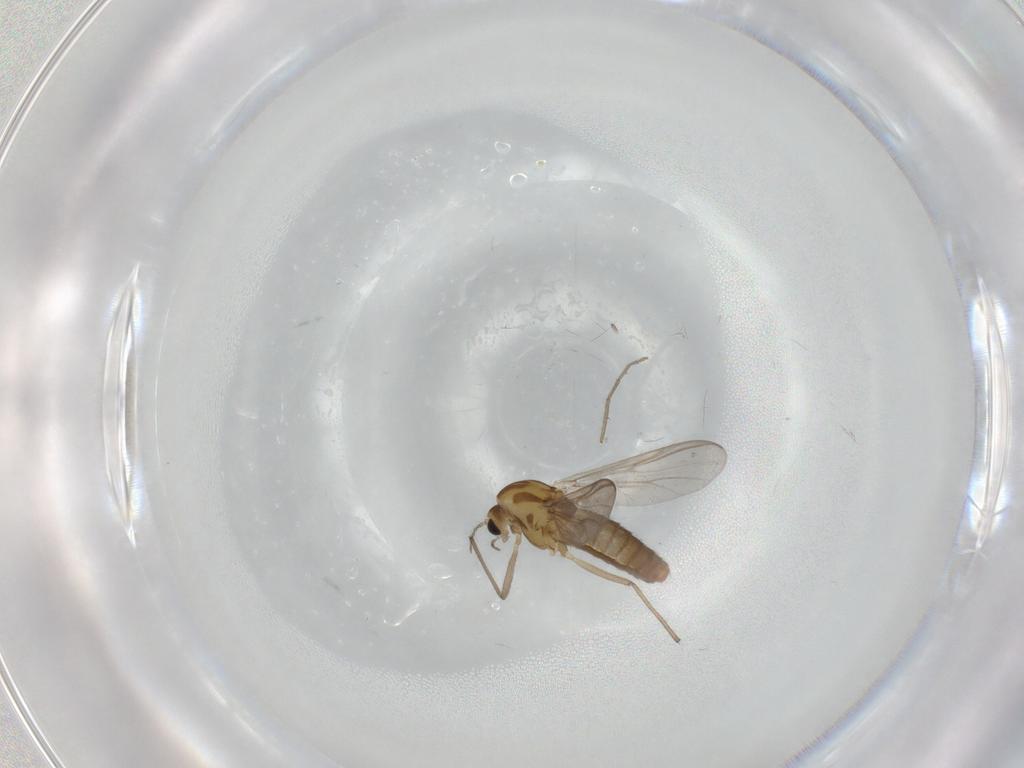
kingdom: Animalia
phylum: Arthropoda
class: Insecta
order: Diptera
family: Chironomidae
